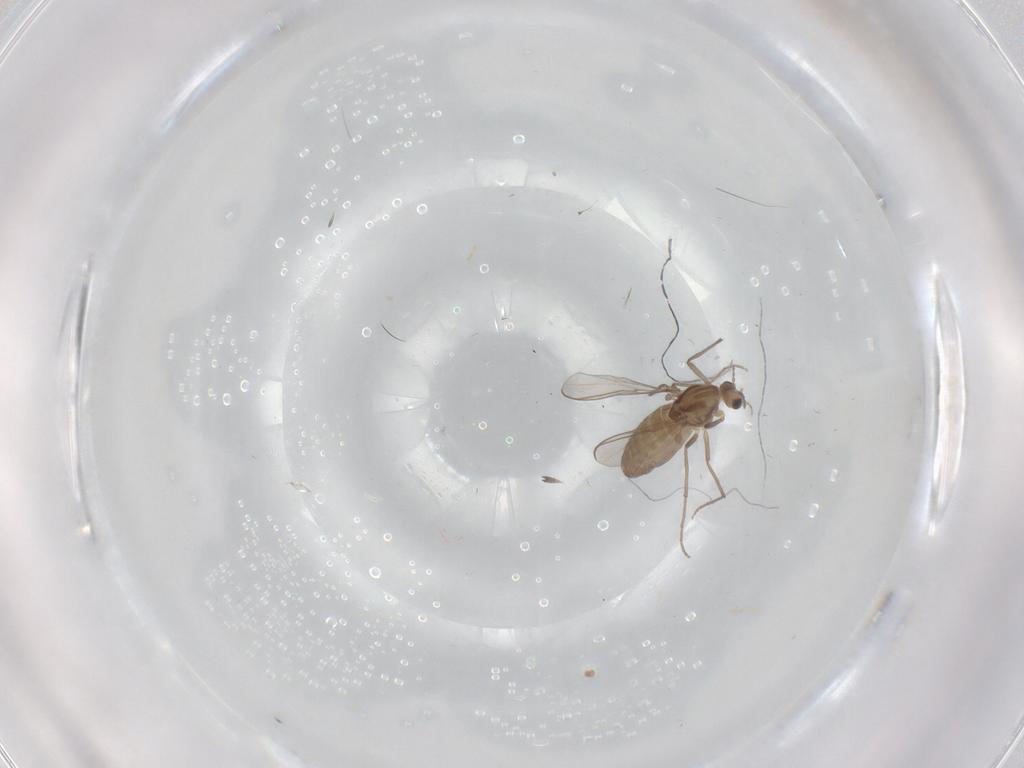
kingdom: Animalia
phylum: Arthropoda
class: Insecta
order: Diptera
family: Chironomidae
